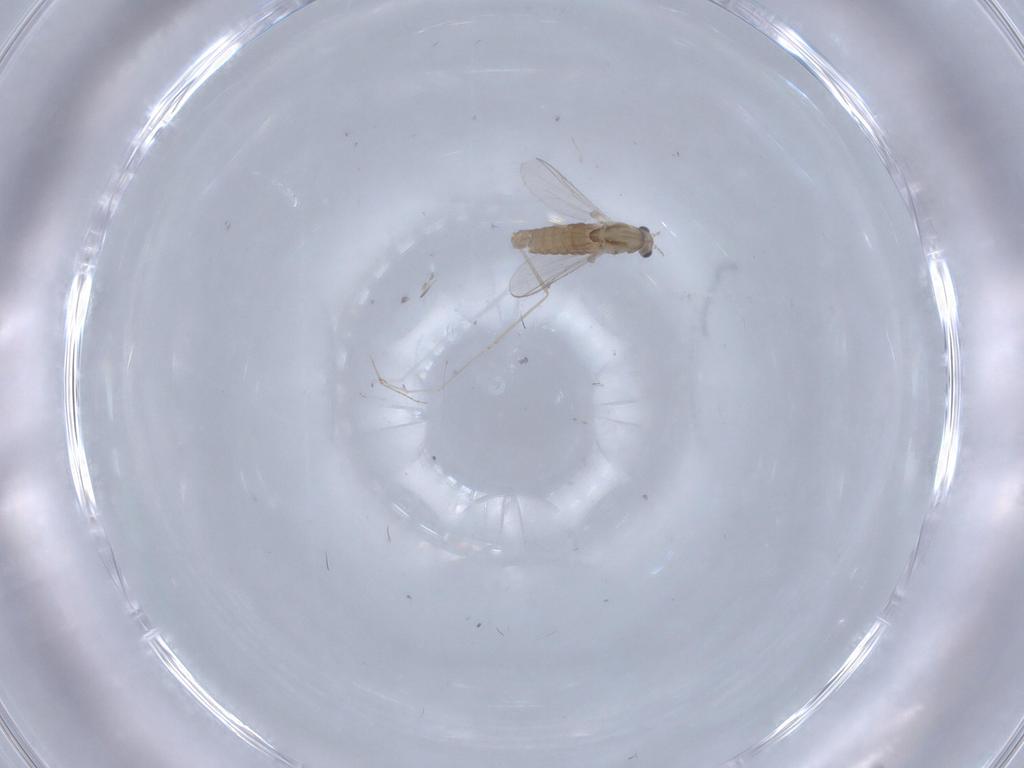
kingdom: Animalia
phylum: Arthropoda
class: Insecta
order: Diptera
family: Chironomidae
